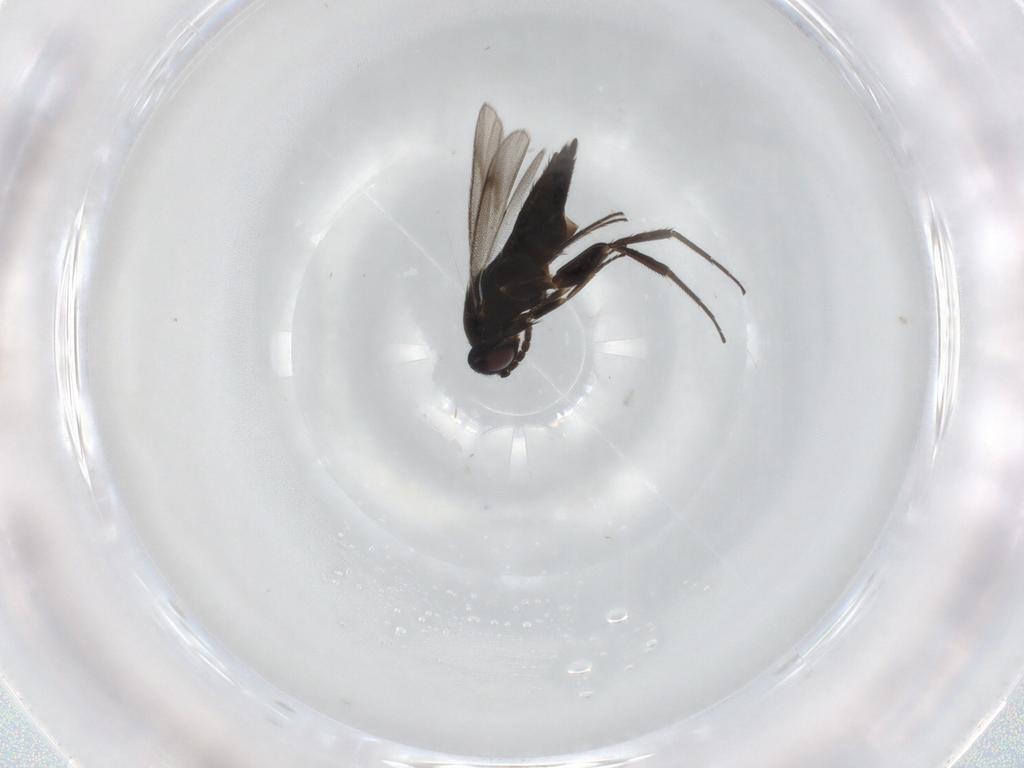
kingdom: Animalia
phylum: Arthropoda
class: Insecta
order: Hymenoptera
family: Eulophidae
